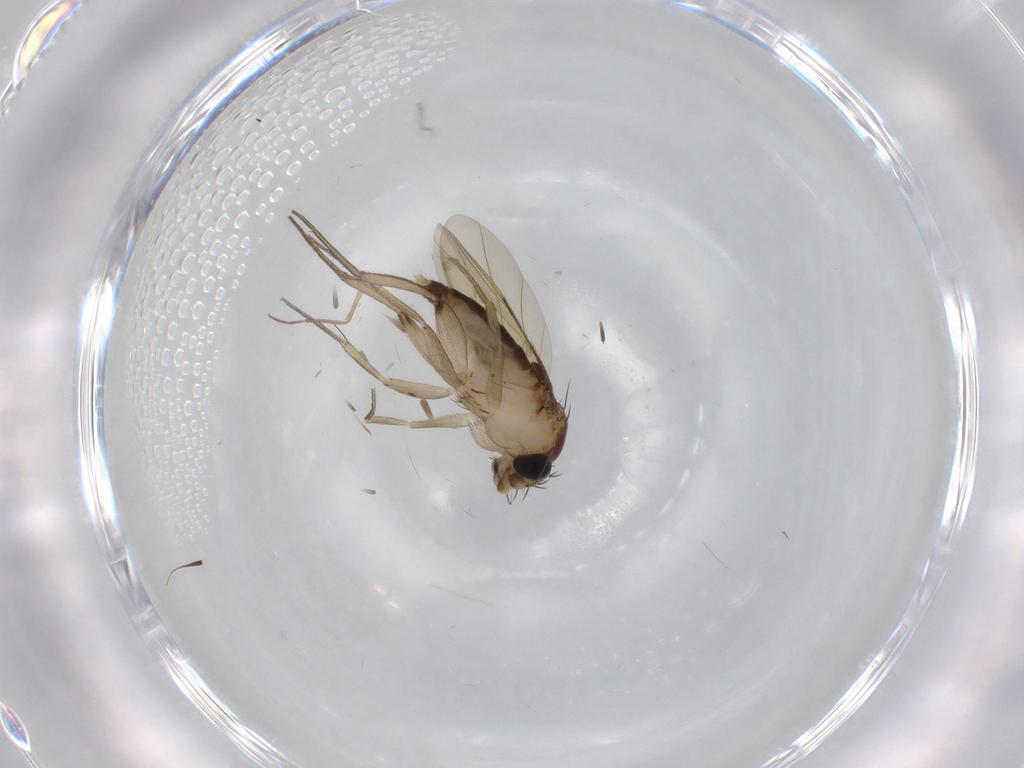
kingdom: Animalia
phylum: Arthropoda
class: Insecta
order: Diptera
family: Phoridae
